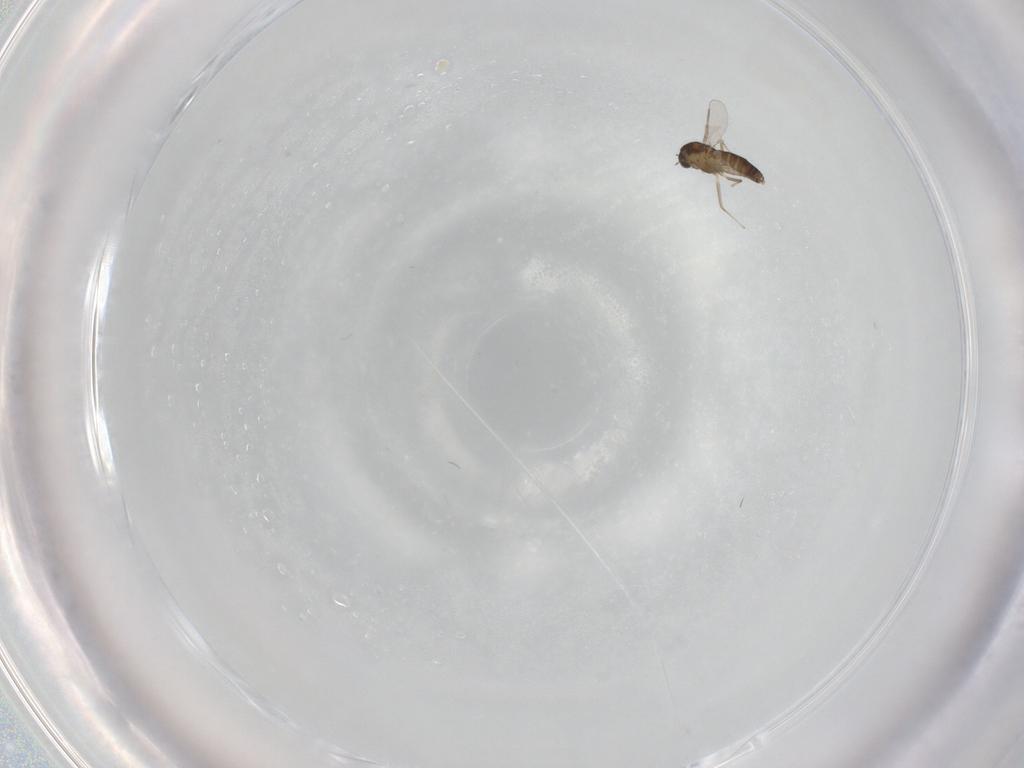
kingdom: Animalia
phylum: Arthropoda
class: Insecta
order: Diptera
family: Chironomidae
